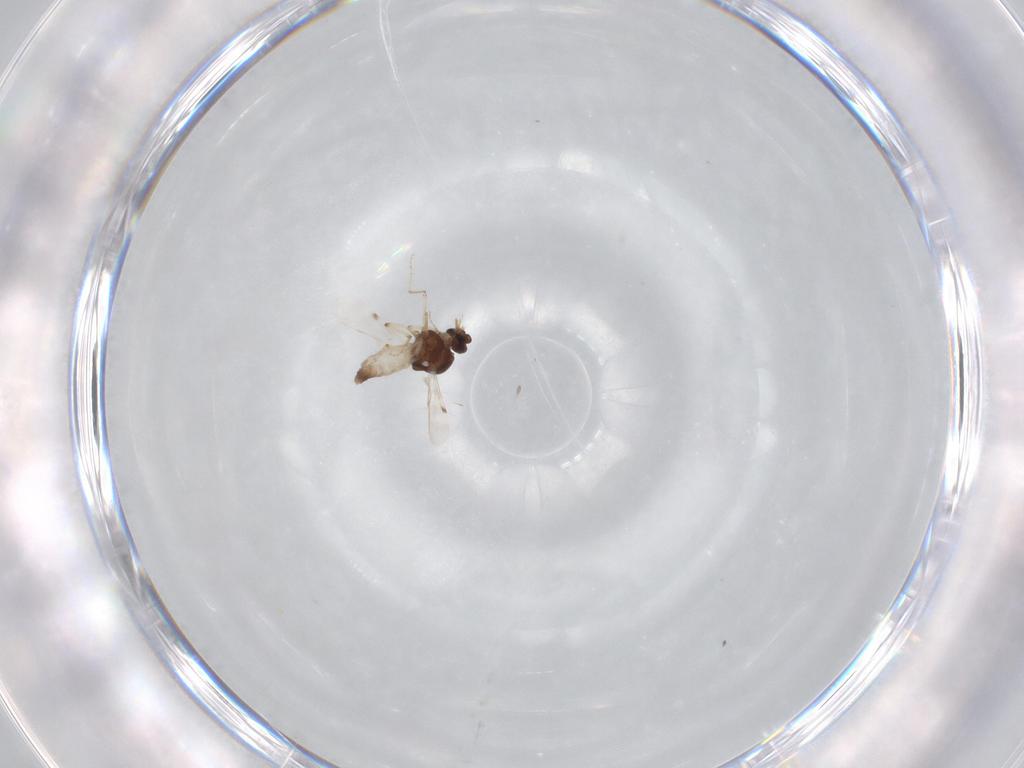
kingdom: Animalia
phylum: Arthropoda
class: Insecta
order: Diptera
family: Ceratopogonidae
